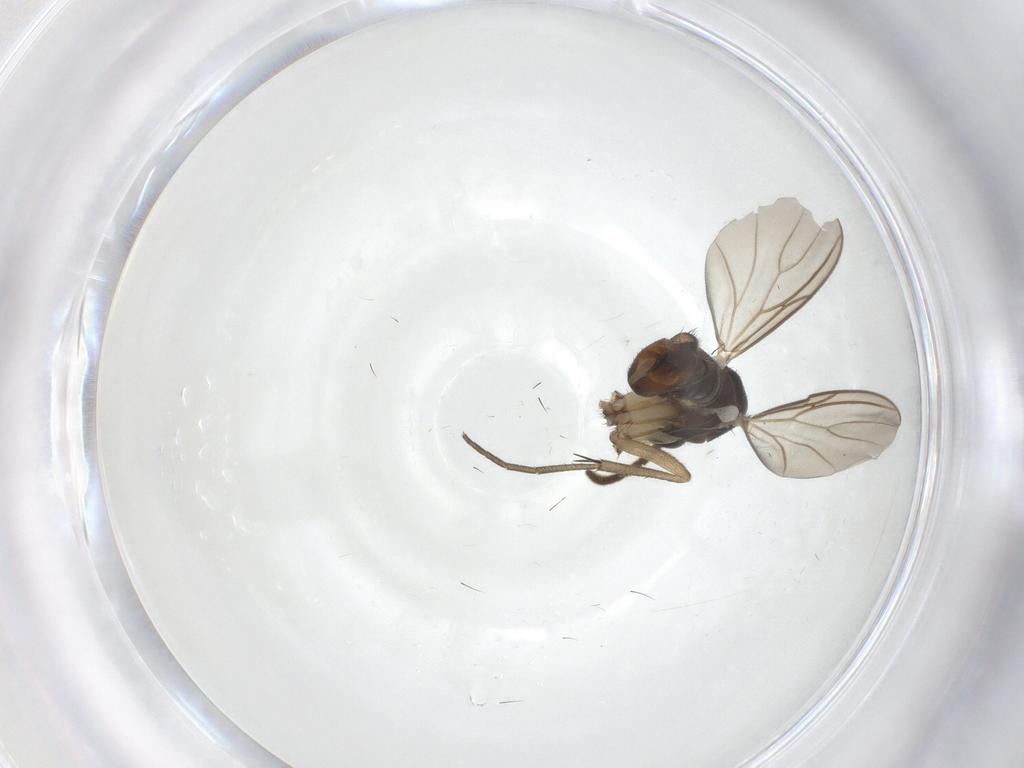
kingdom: Animalia
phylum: Arthropoda
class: Insecta
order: Diptera
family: Mycetophilidae
